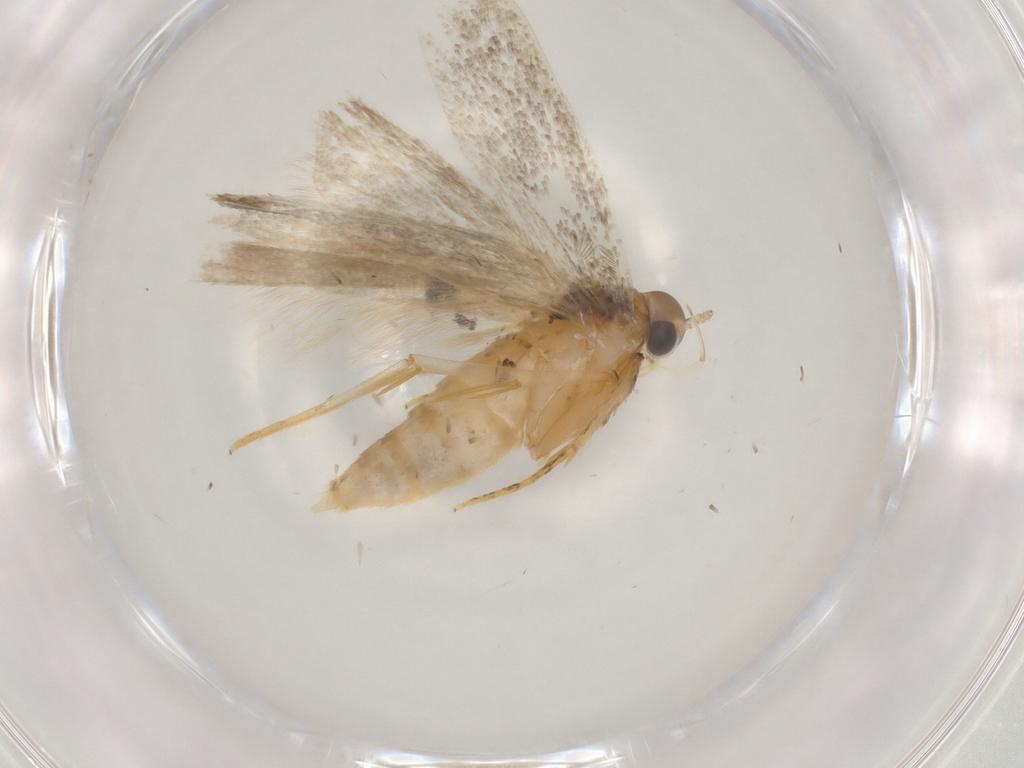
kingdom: Animalia
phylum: Arthropoda
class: Insecta
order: Lepidoptera
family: Autostichidae
